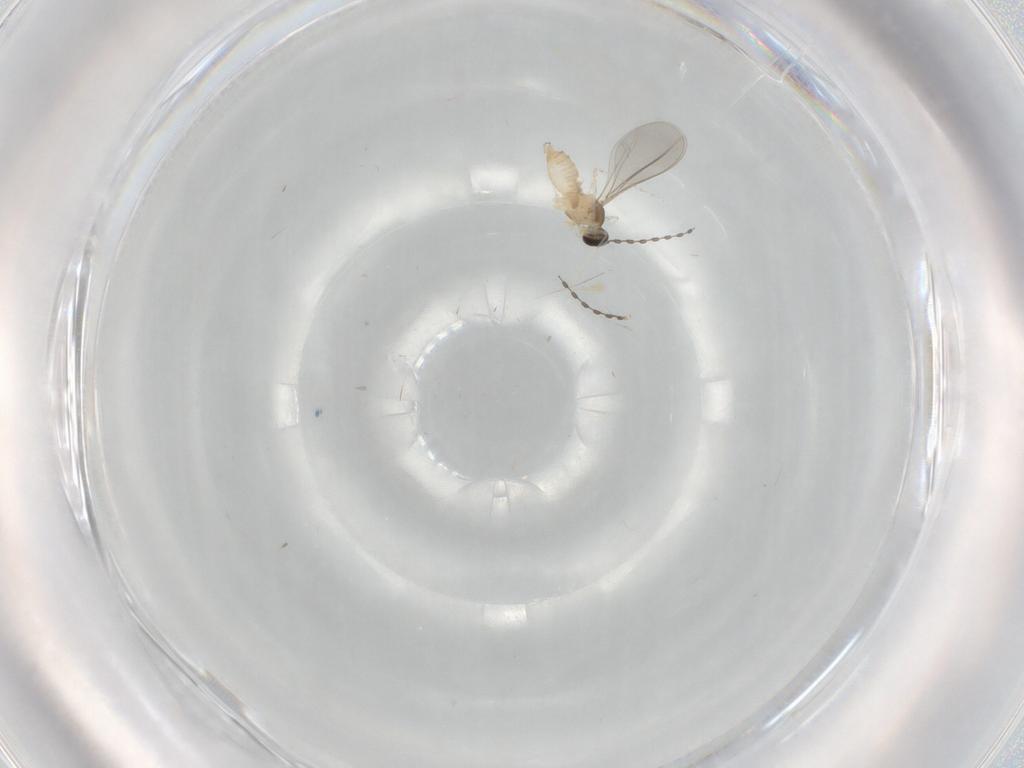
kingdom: Animalia
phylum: Arthropoda
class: Insecta
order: Diptera
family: Cecidomyiidae
